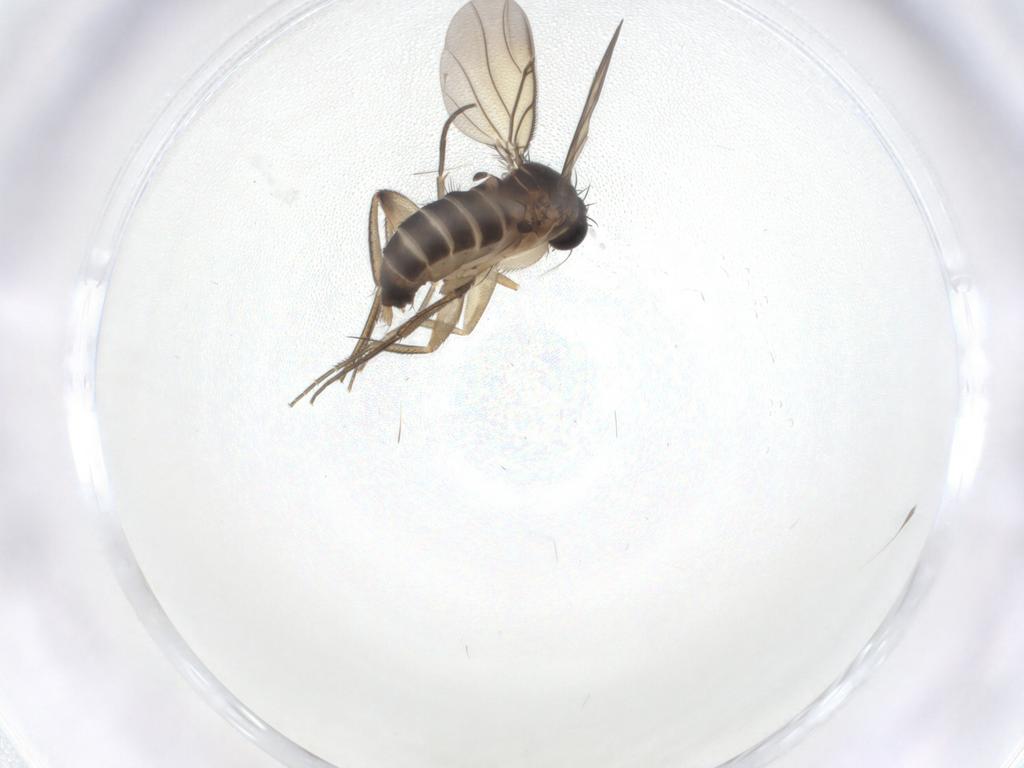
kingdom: Animalia
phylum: Arthropoda
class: Insecta
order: Diptera
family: Phoridae
